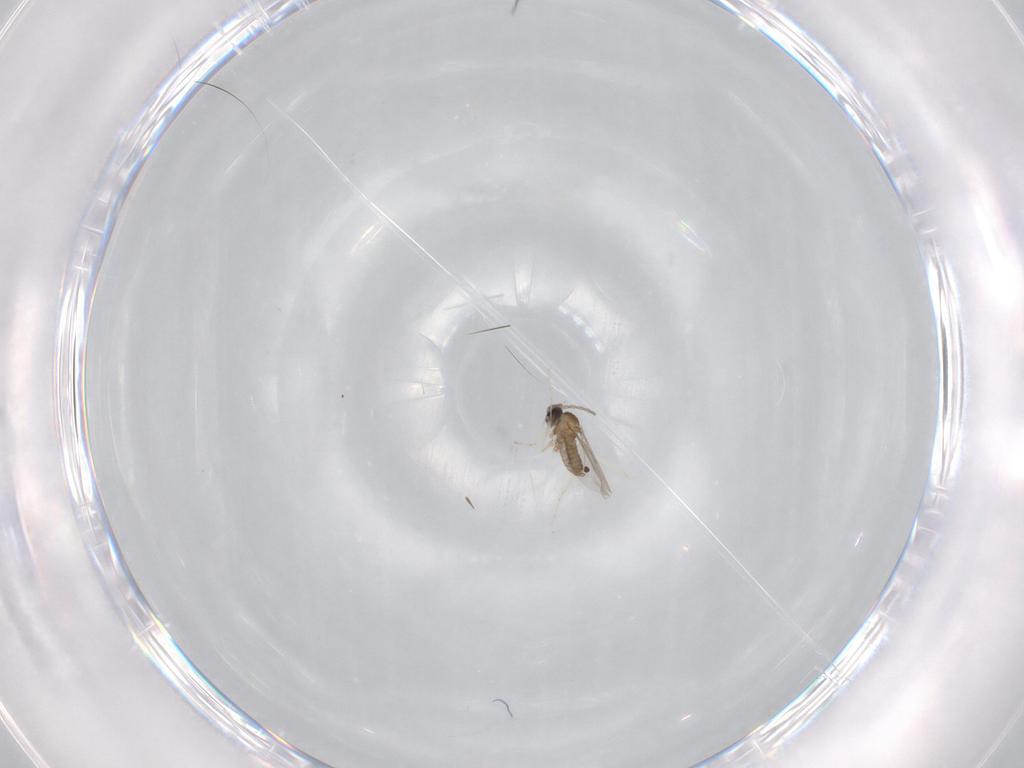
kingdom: Animalia
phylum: Arthropoda
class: Insecta
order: Diptera
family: Cecidomyiidae
